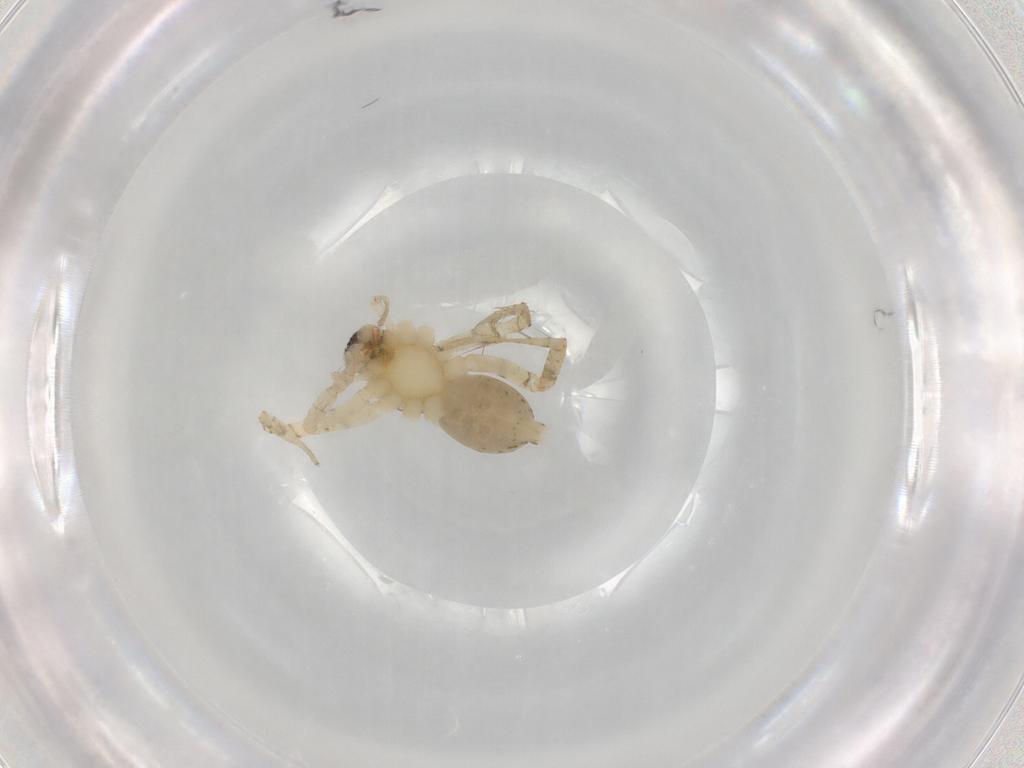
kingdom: Animalia
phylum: Arthropoda
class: Arachnida
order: Araneae
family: Anyphaenidae
